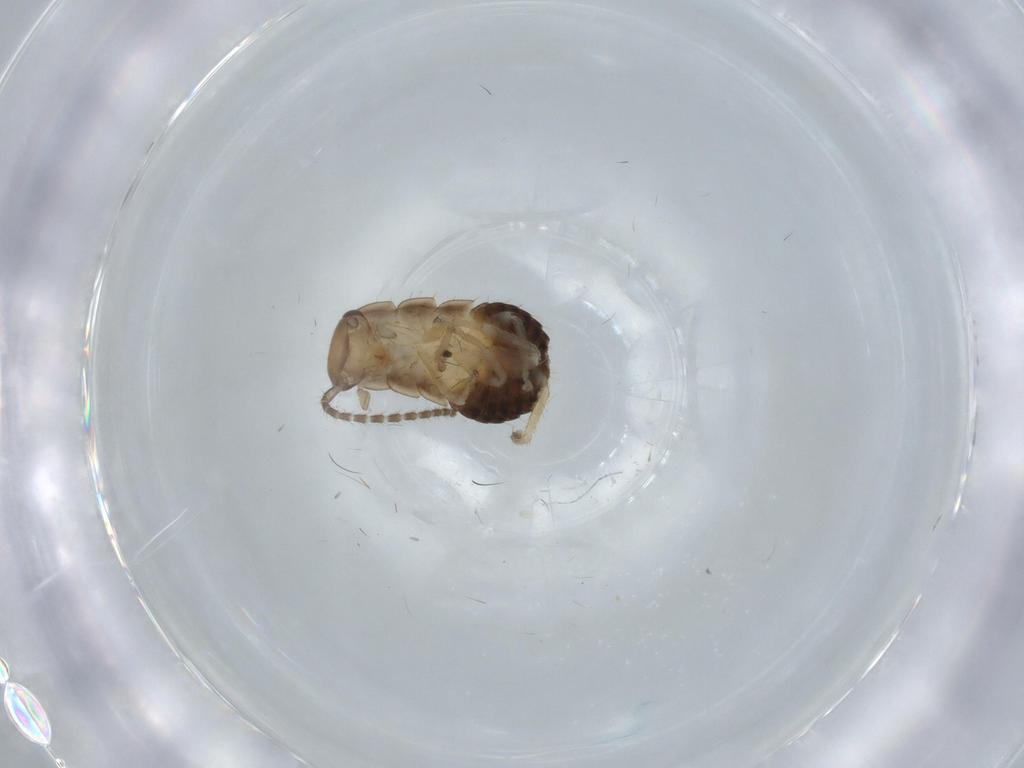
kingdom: Animalia
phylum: Arthropoda
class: Insecta
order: Blattodea
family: Ectobiidae
